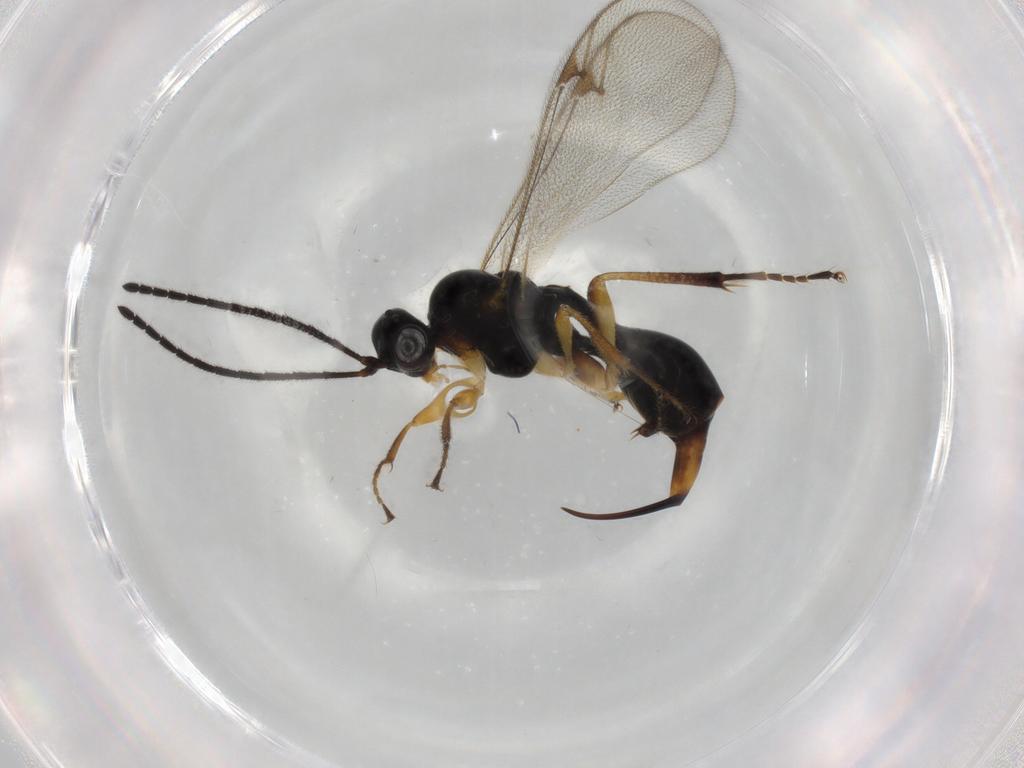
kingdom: Animalia
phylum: Arthropoda
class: Insecta
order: Hymenoptera
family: Proctotrupidae
